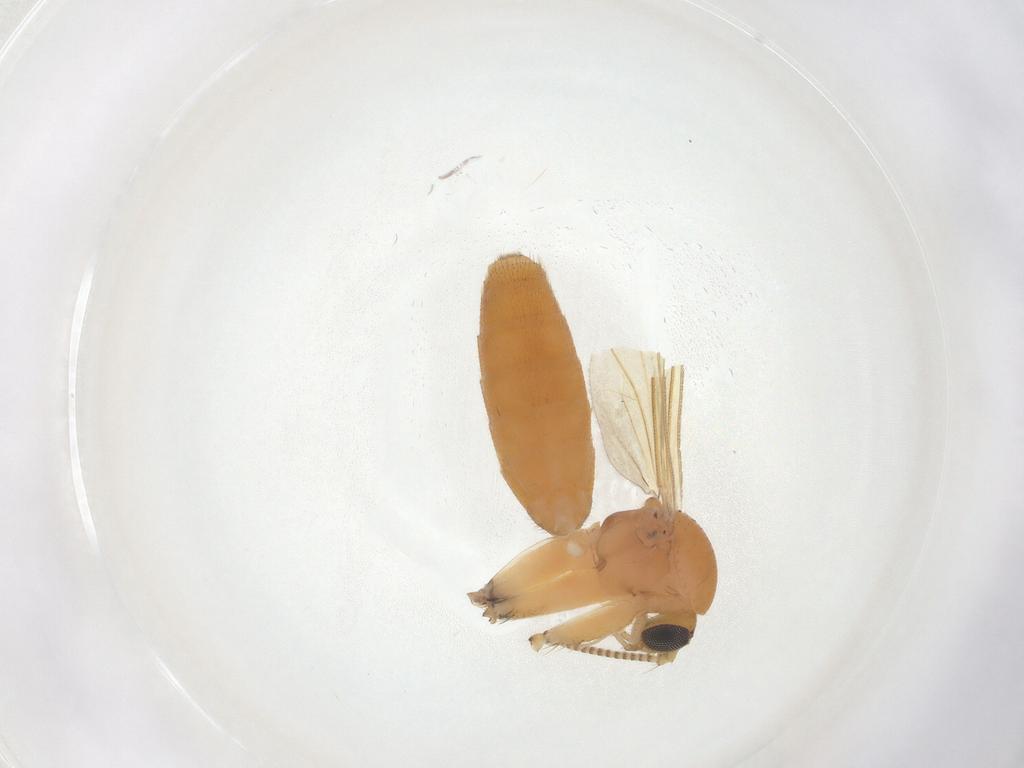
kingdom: Animalia
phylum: Arthropoda
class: Insecta
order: Diptera
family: Mycetophilidae
